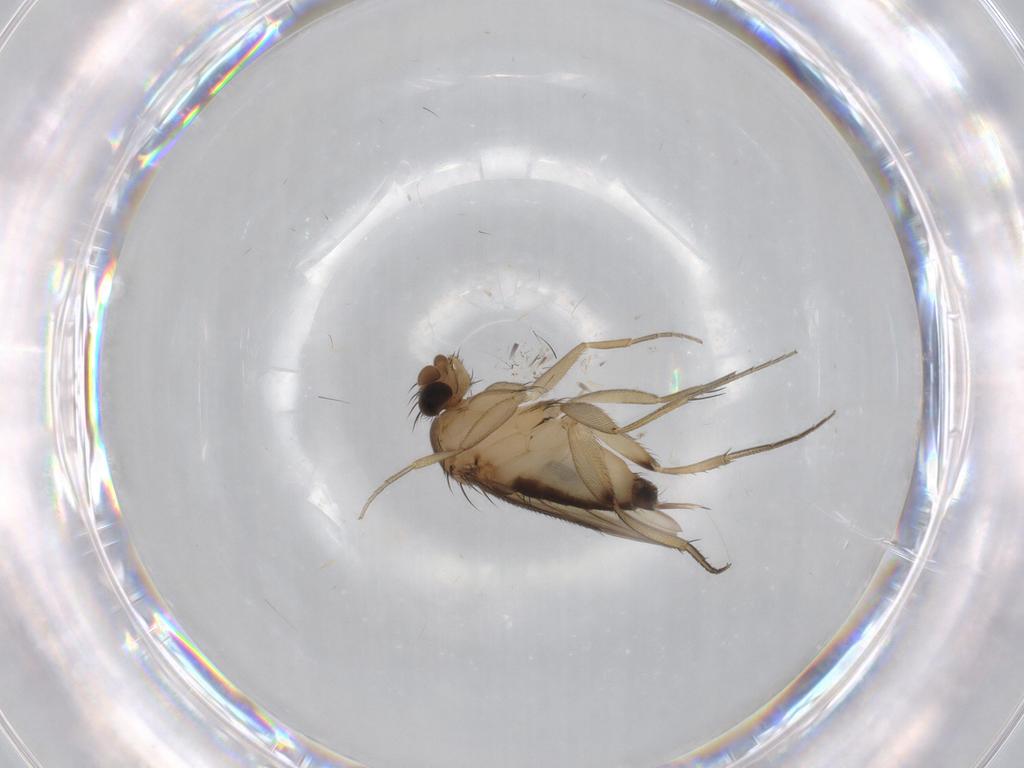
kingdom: Animalia
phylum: Arthropoda
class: Insecta
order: Diptera
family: Phoridae
